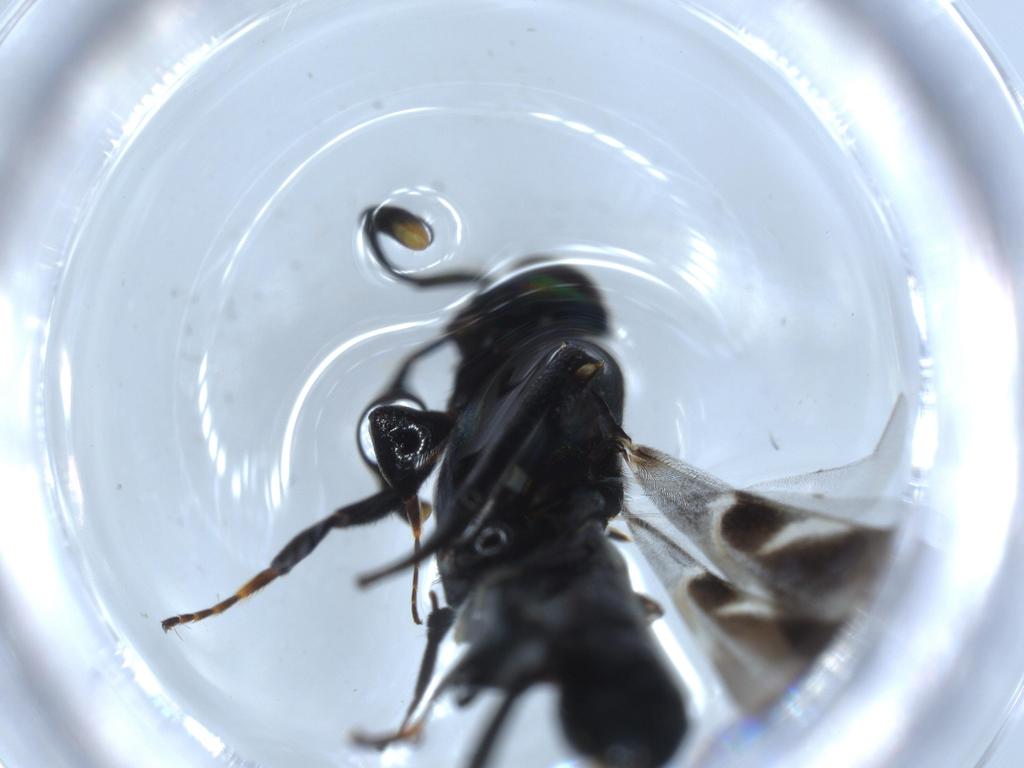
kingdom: Animalia
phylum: Arthropoda
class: Insecta
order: Hymenoptera
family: Eupelmidae
